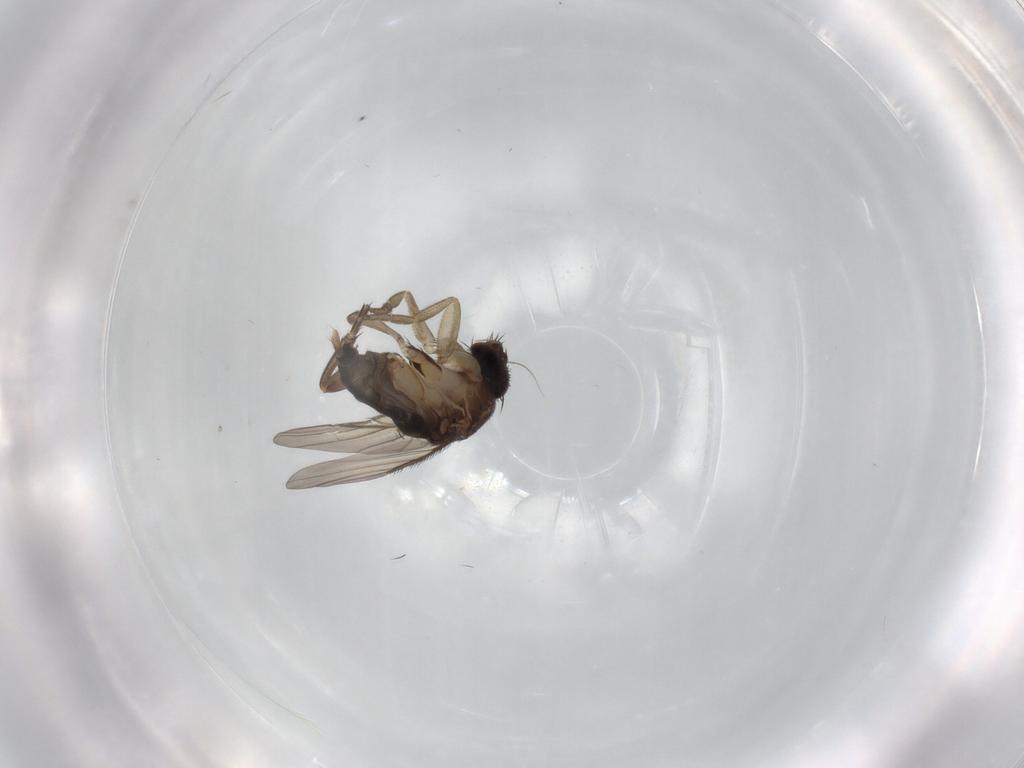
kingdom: Animalia
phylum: Arthropoda
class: Insecta
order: Diptera
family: Phoridae
